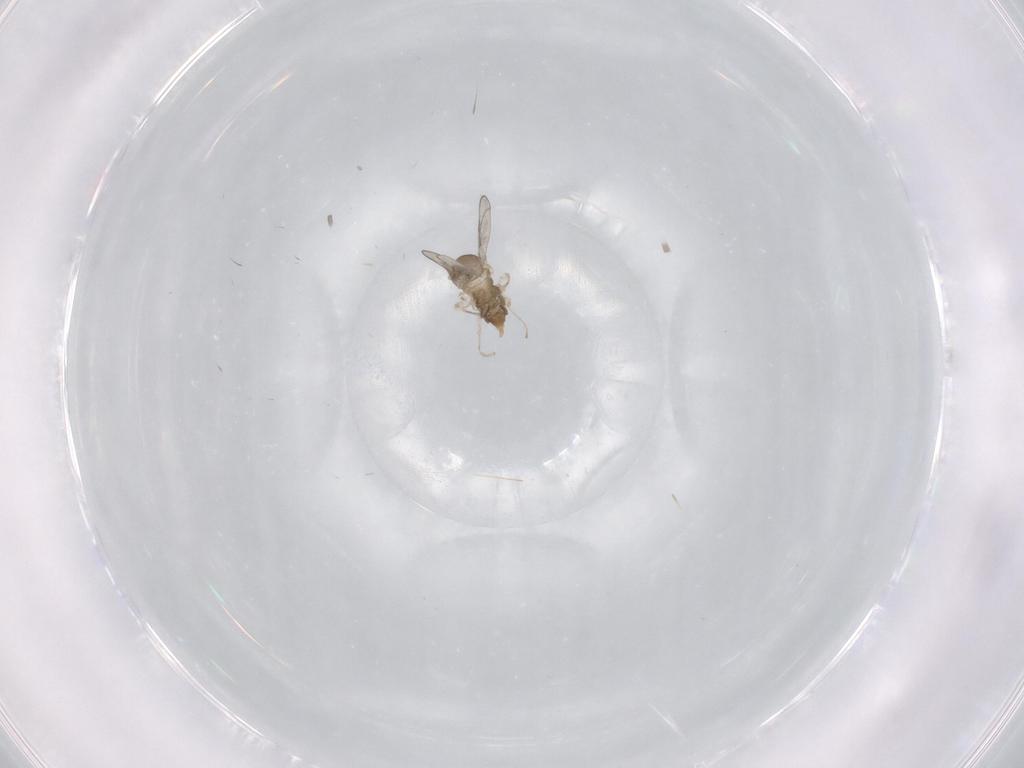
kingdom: Animalia
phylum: Arthropoda
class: Insecta
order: Diptera
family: Cecidomyiidae
